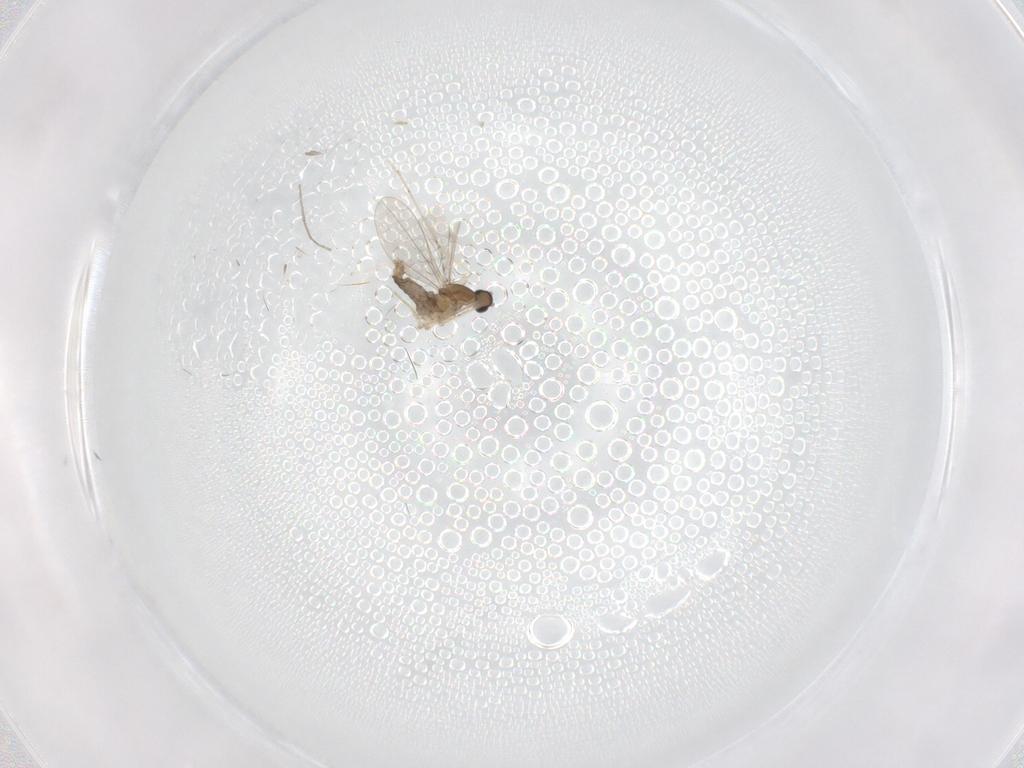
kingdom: Animalia
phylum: Arthropoda
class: Insecta
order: Diptera
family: Cecidomyiidae
